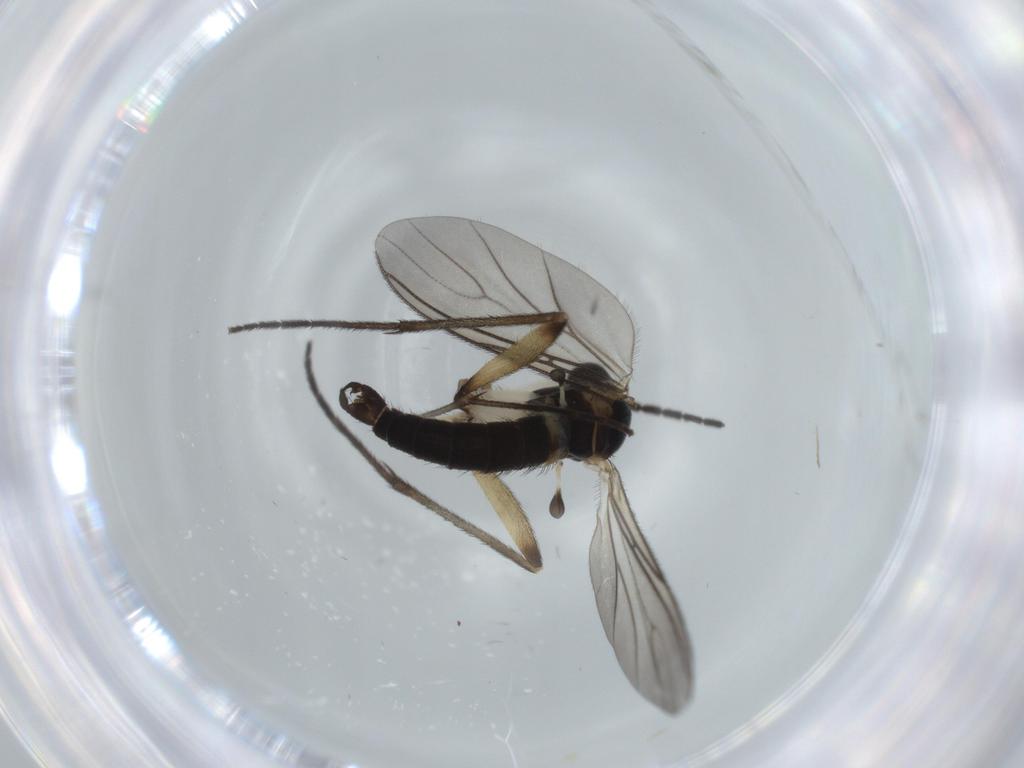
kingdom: Animalia
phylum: Arthropoda
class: Insecta
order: Diptera
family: Sciaridae
